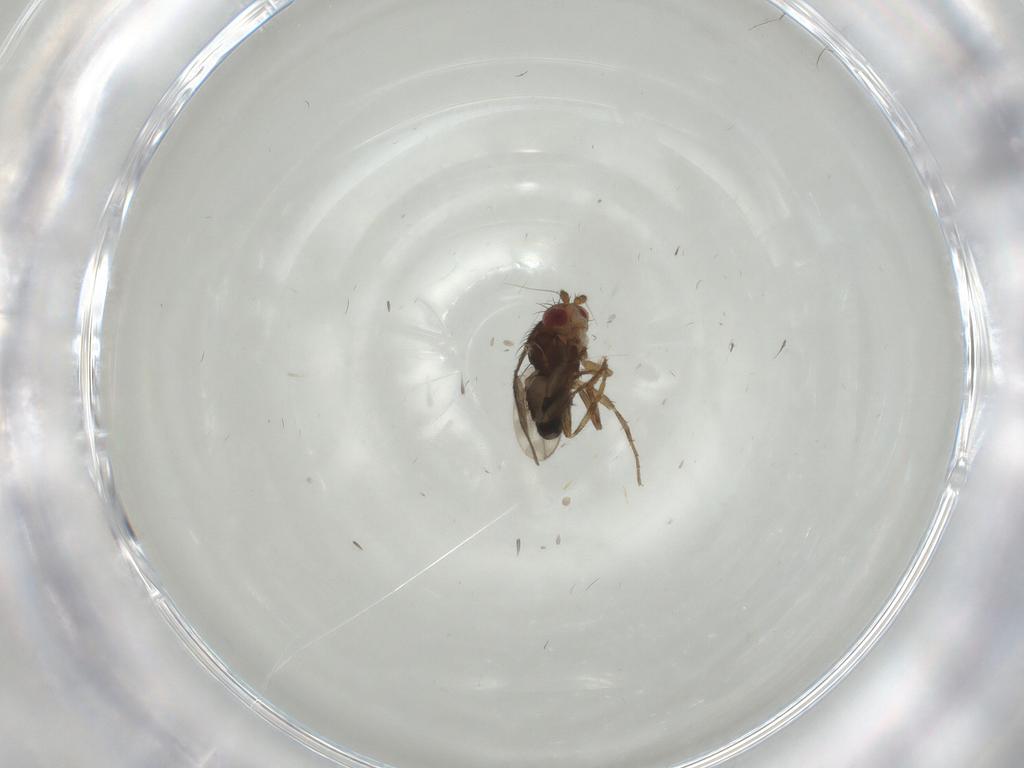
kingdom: Animalia
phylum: Arthropoda
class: Insecta
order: Diptera
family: Sphaeroceridae
